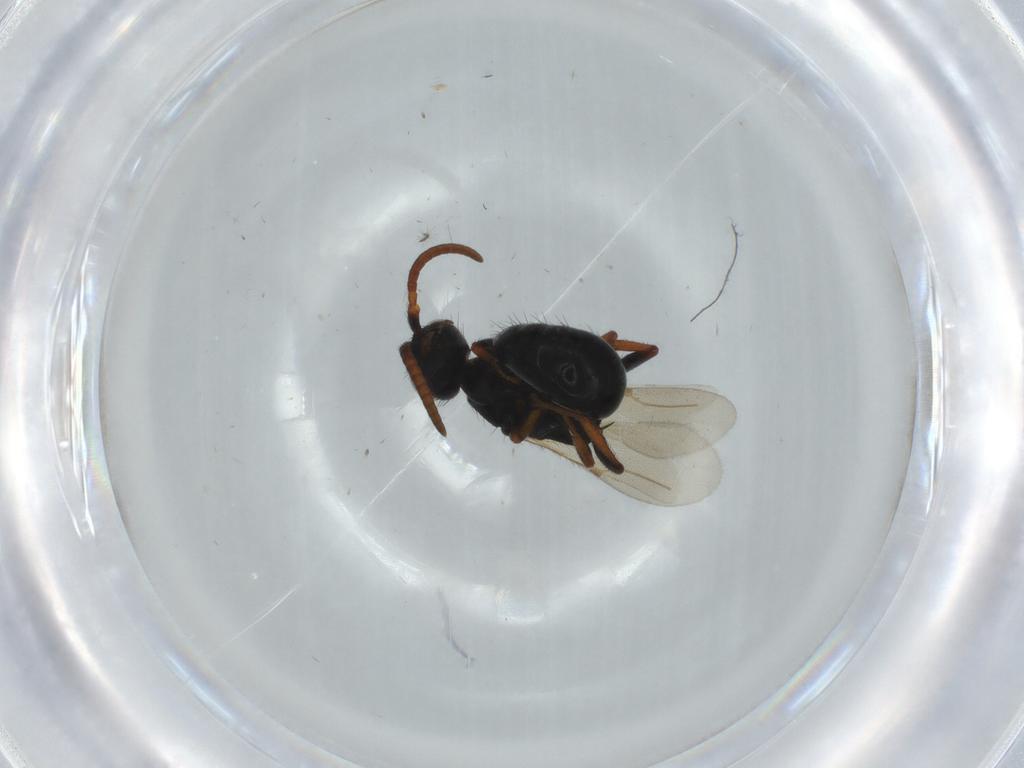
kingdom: Animalia
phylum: Arthropoda
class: Insecta
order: Hymenoptera
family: Bethylidae
